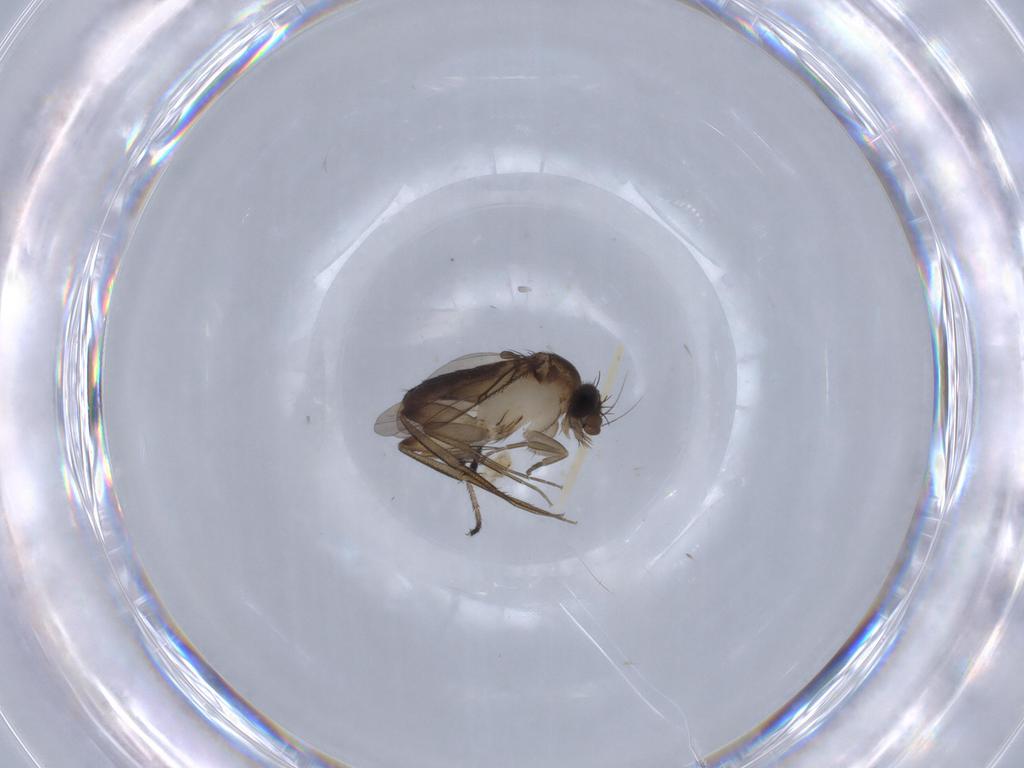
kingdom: Animalia
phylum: Arthropoda
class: Insecta
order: Diptera
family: Phoridae
